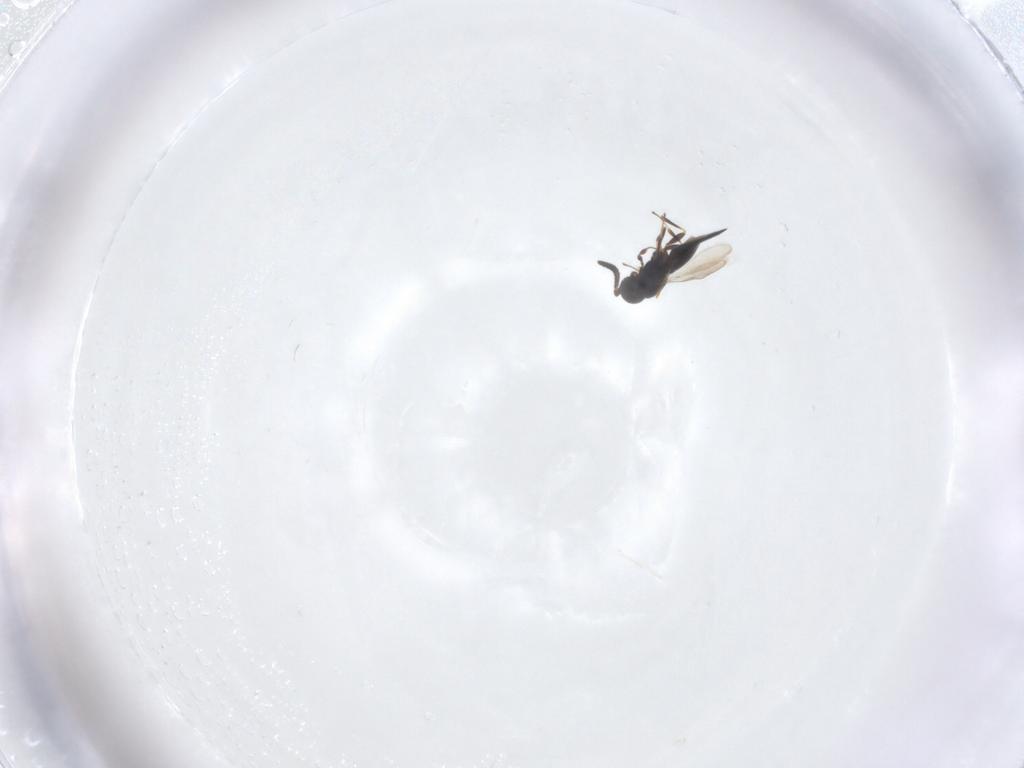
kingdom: Animalia
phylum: Arthropoda
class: Insecta
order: Hymenoptera
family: Scelionidae
